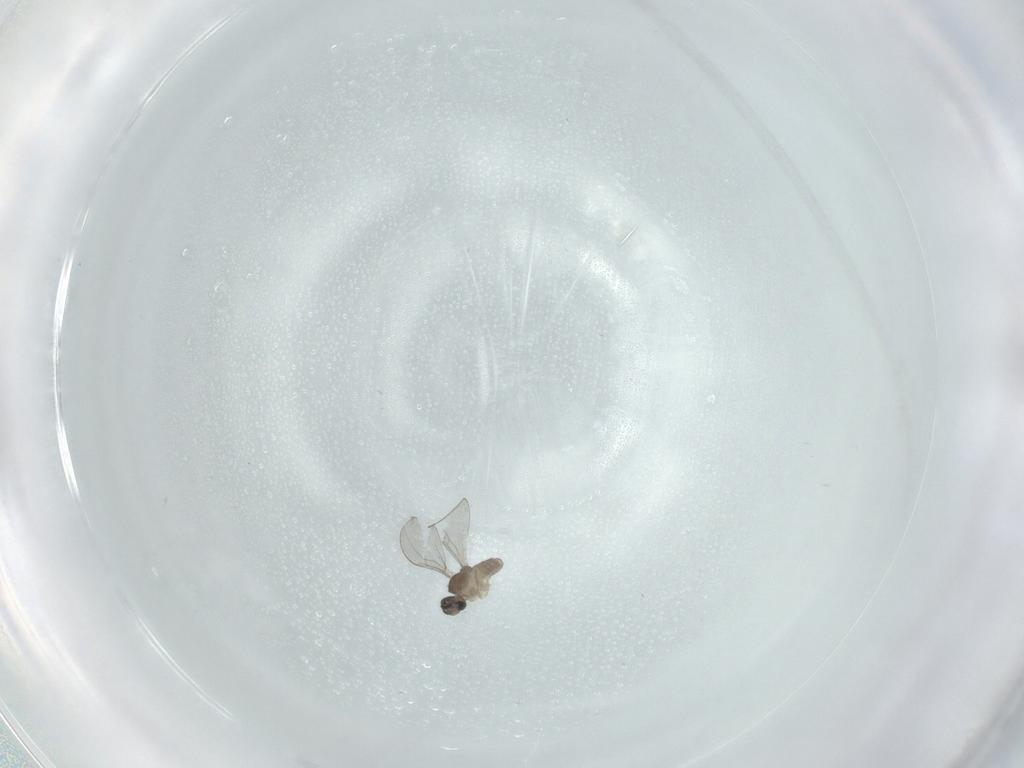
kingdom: Animalia
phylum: Arthropoda
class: Insecta
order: Diptera
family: Cecidomyiidae
